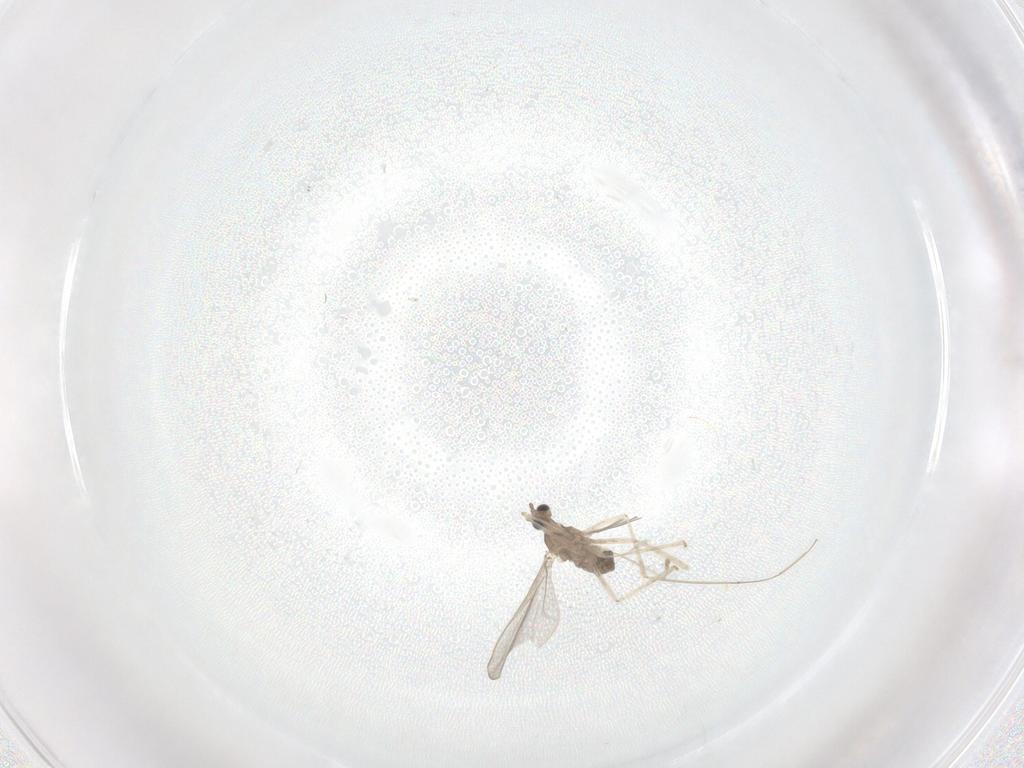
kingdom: Animalia
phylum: Arthropoda
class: Insecta
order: Diptera
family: Cecidomyiidae
